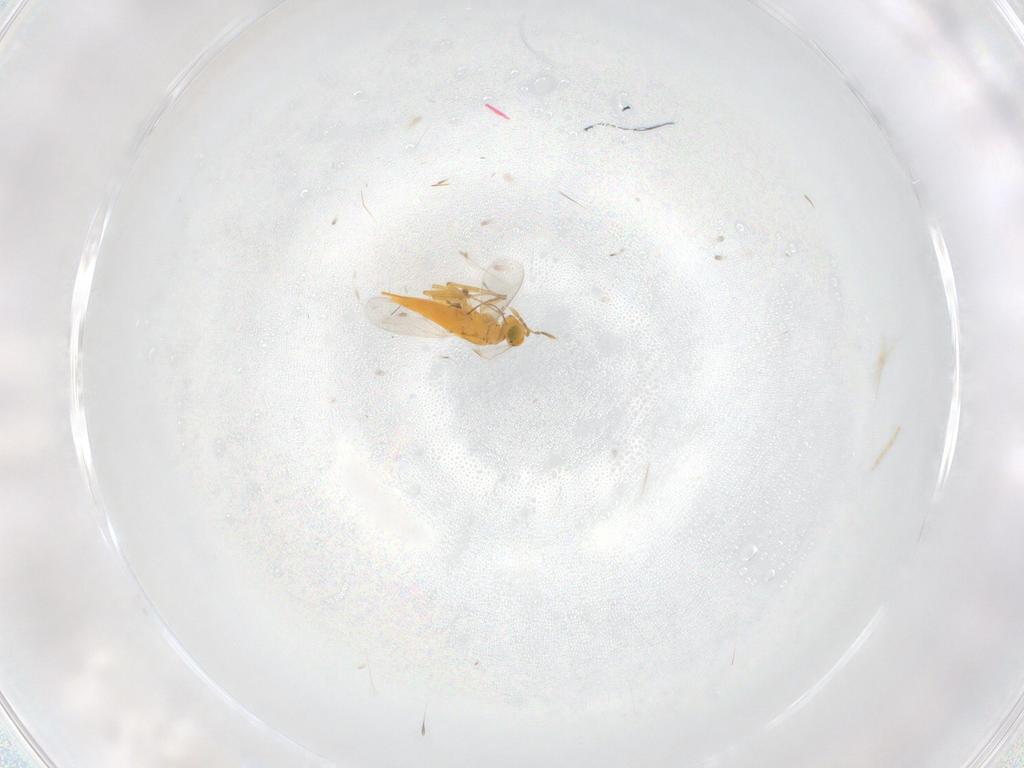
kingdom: Animalia
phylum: Arthropoda
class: Insecta
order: Hymenoptera
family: Aphelinidae
